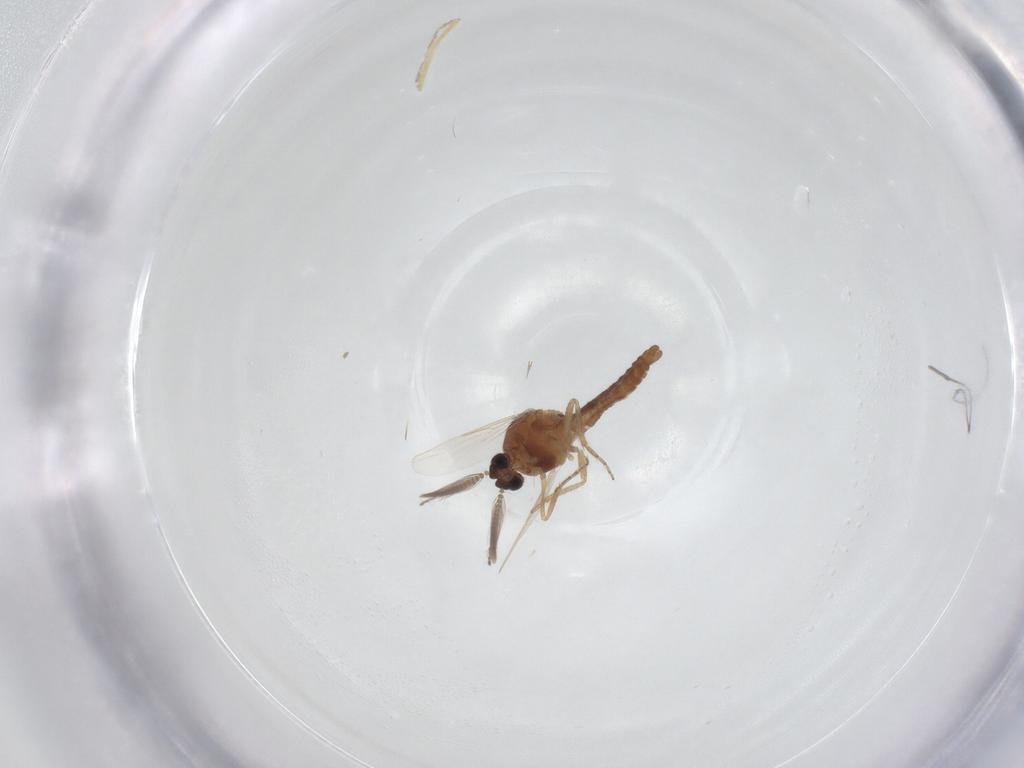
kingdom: Animalia
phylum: Arthropoda
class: Insecta
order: Diptera
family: Ceratopogonidae
